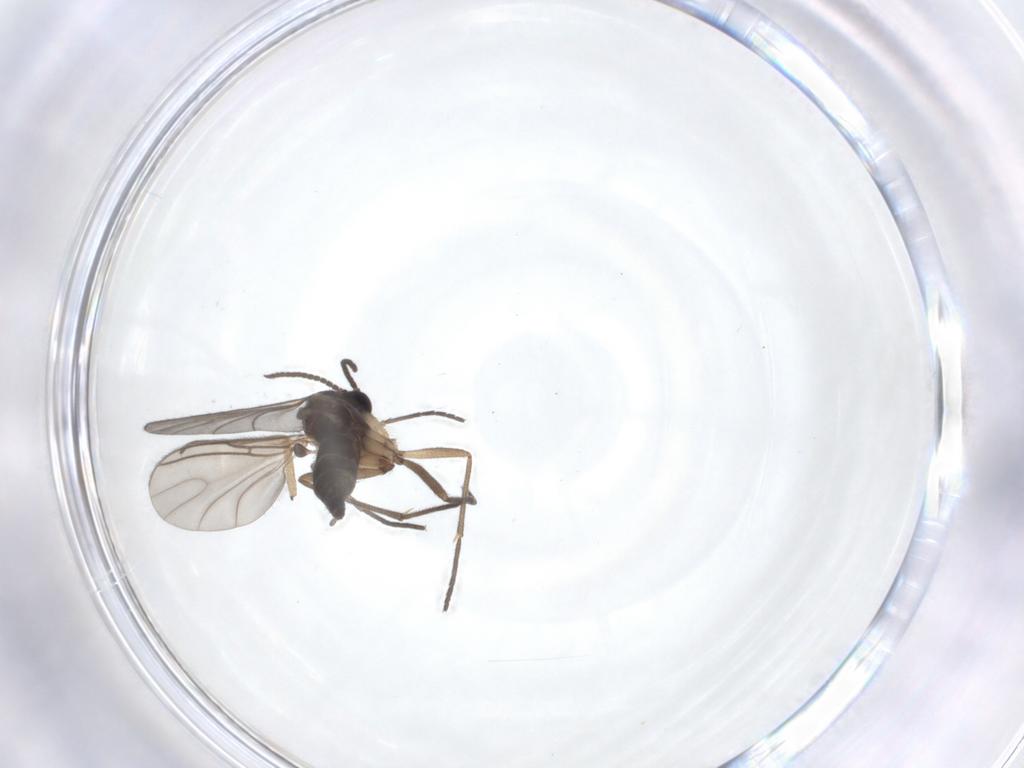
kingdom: Animalia
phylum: Arthropoda
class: Insecta
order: Diptera
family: Sciaridae
